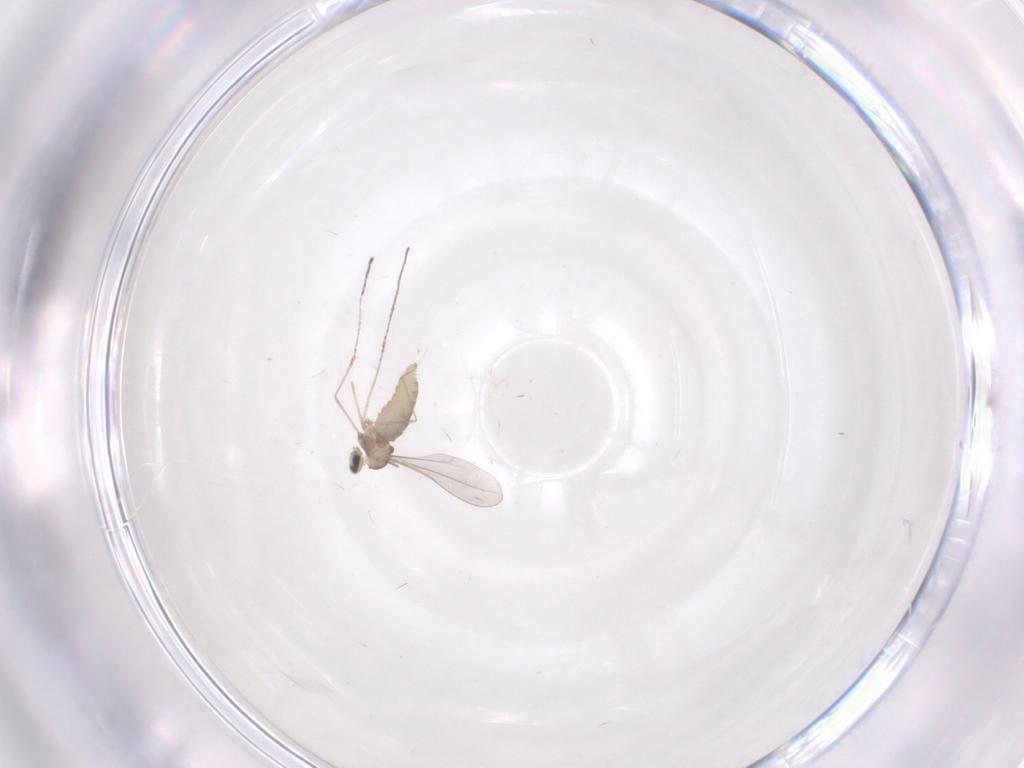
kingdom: Animalia
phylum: Arthropoda
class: Insecta
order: Diptera
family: Cecidomyiidae
